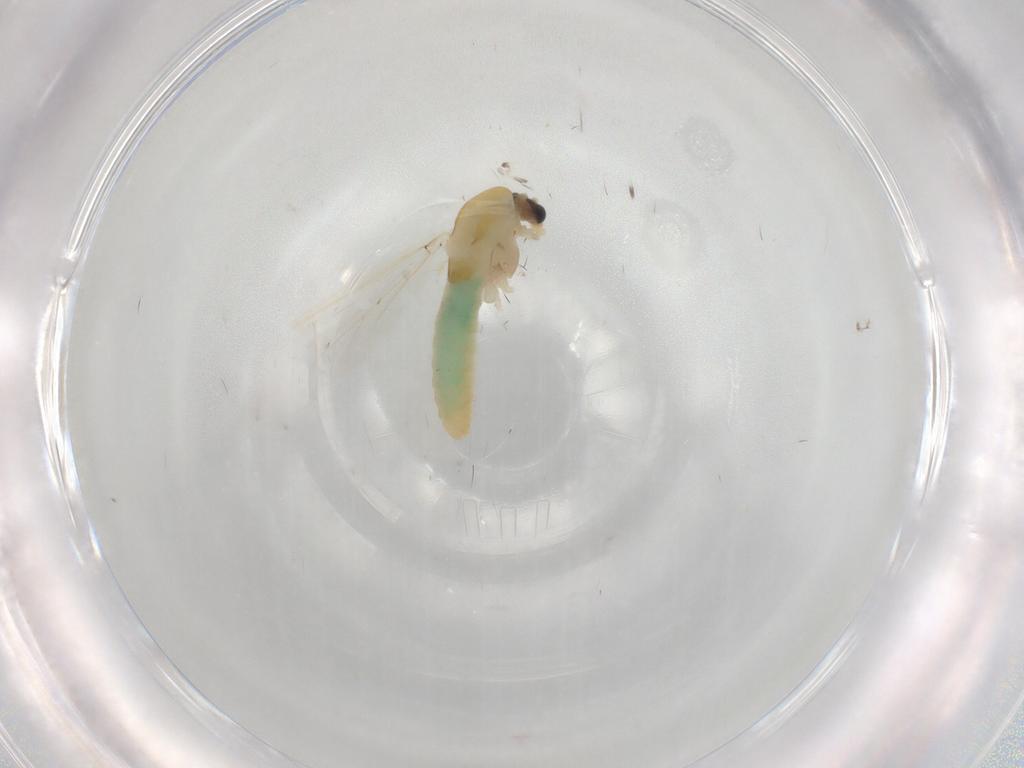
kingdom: Animalia
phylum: Arthropoda
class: Insecta
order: Diptera
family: Chironomidae
